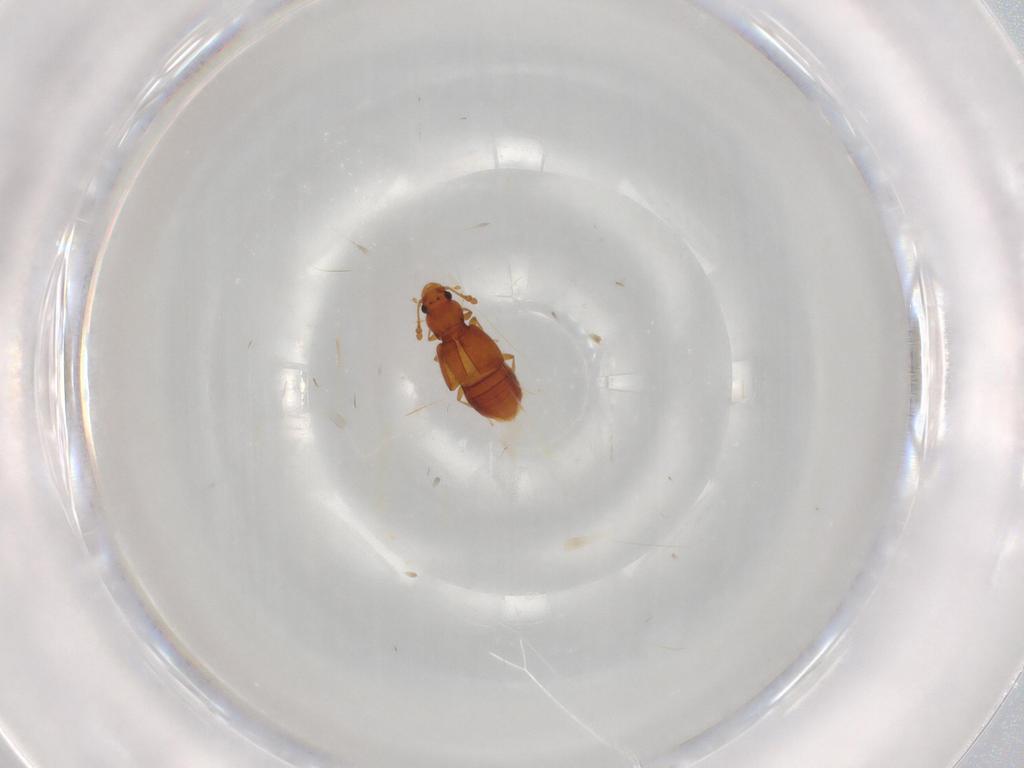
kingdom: Animalia
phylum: Arthropoda
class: Insecta
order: Coleoptera
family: Staphylinidae
